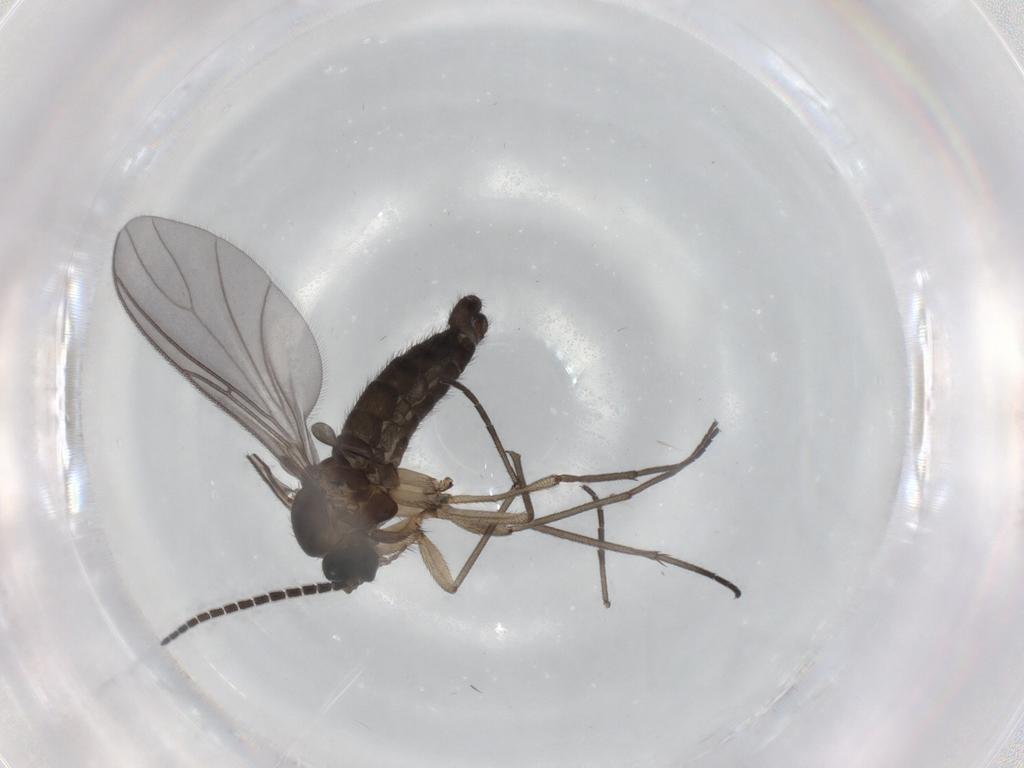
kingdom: Animalia
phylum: Arthropoda
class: Insecta
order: Diptera
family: Sciaridae
